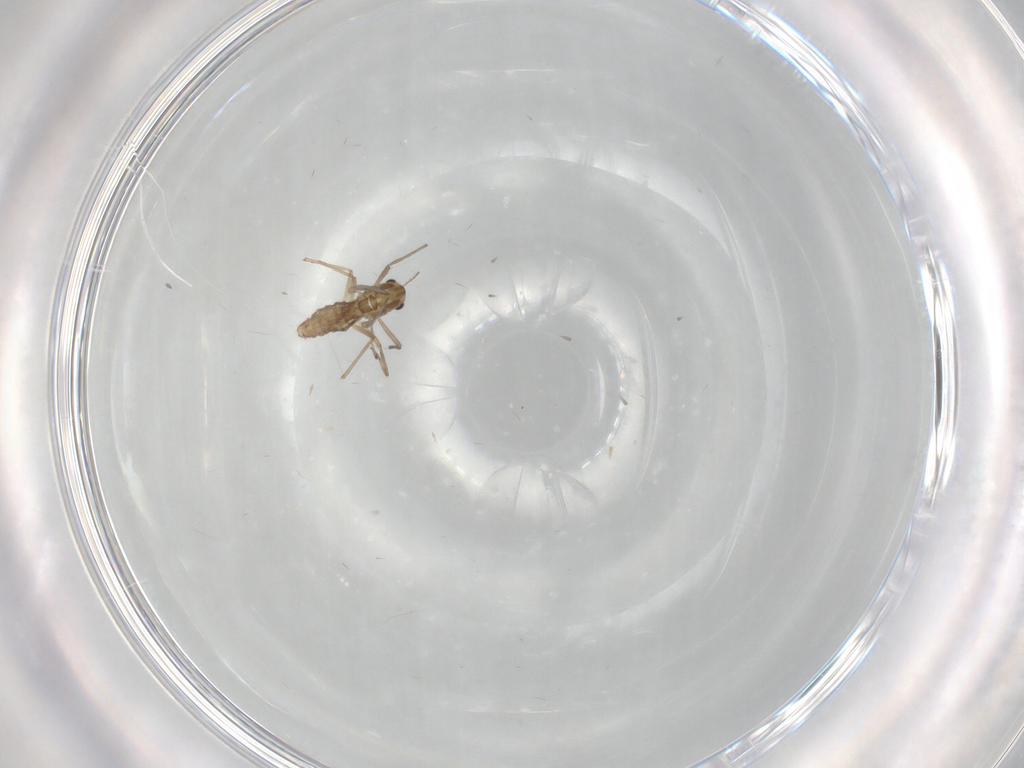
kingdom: Animalia
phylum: Arthropoda
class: Insecta
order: Diptera
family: Chironomidae
